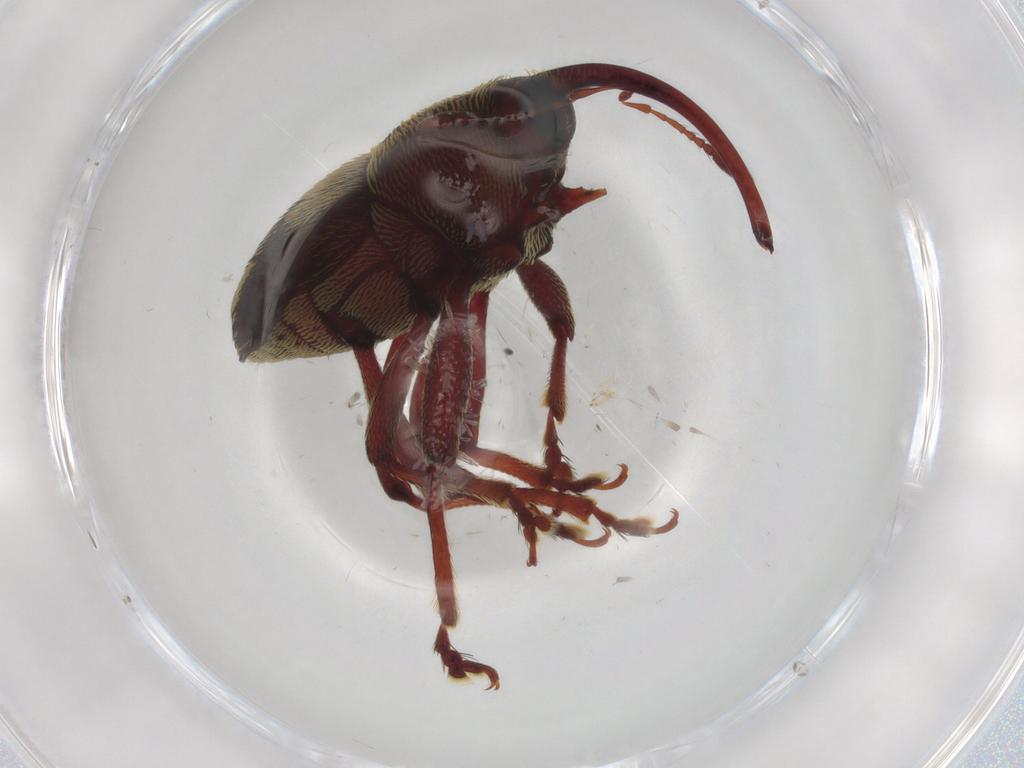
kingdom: Animalia
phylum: Arthropoda
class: Insecta
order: Coleoptera
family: Curculionidae
